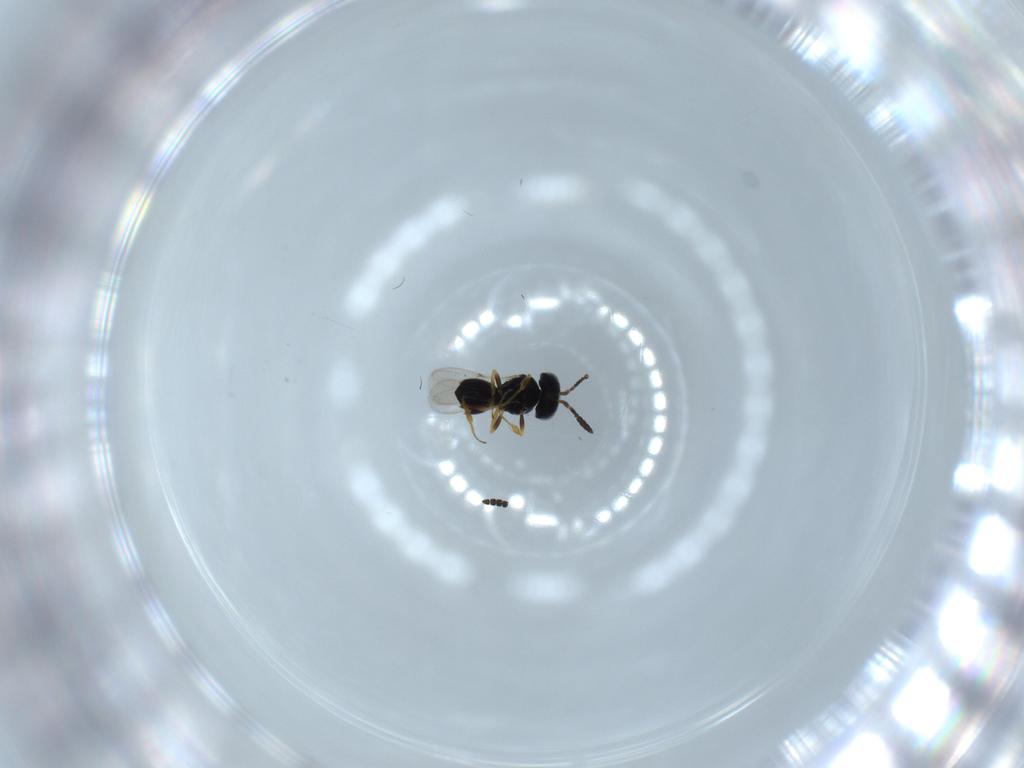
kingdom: Animalia
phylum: Arthropoda
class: Insecta
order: Hymenoptera
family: Scelionidae
